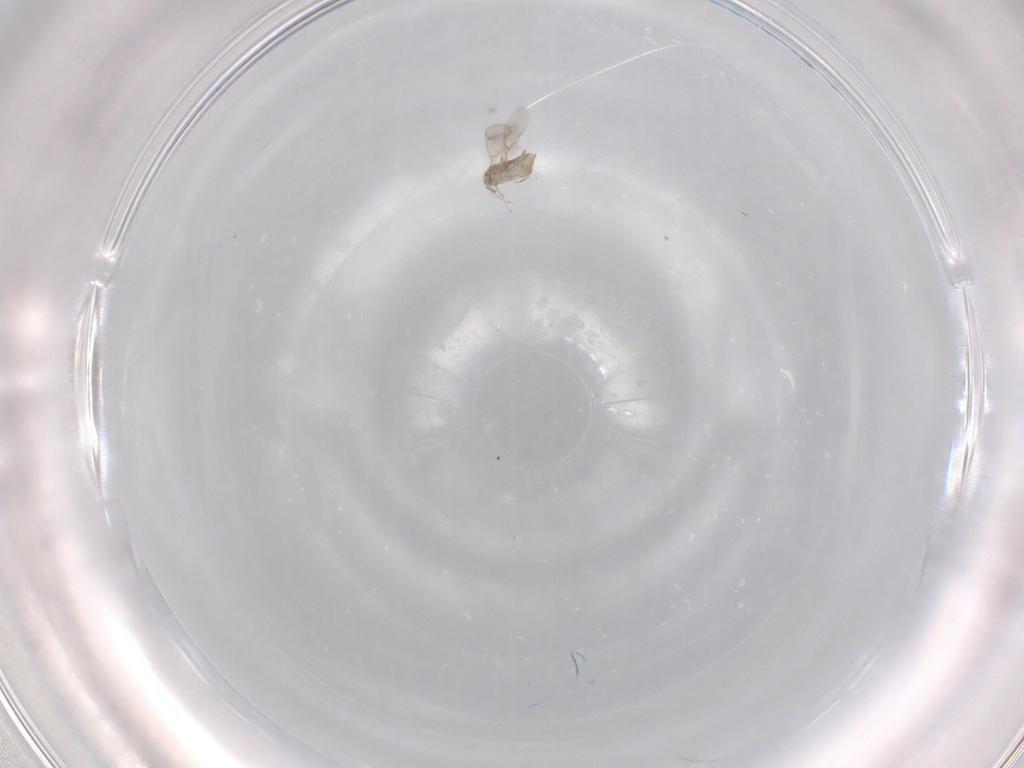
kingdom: Animalia
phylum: Arthropoda
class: Insecta
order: Hymenoptera
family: Aphelinidae
